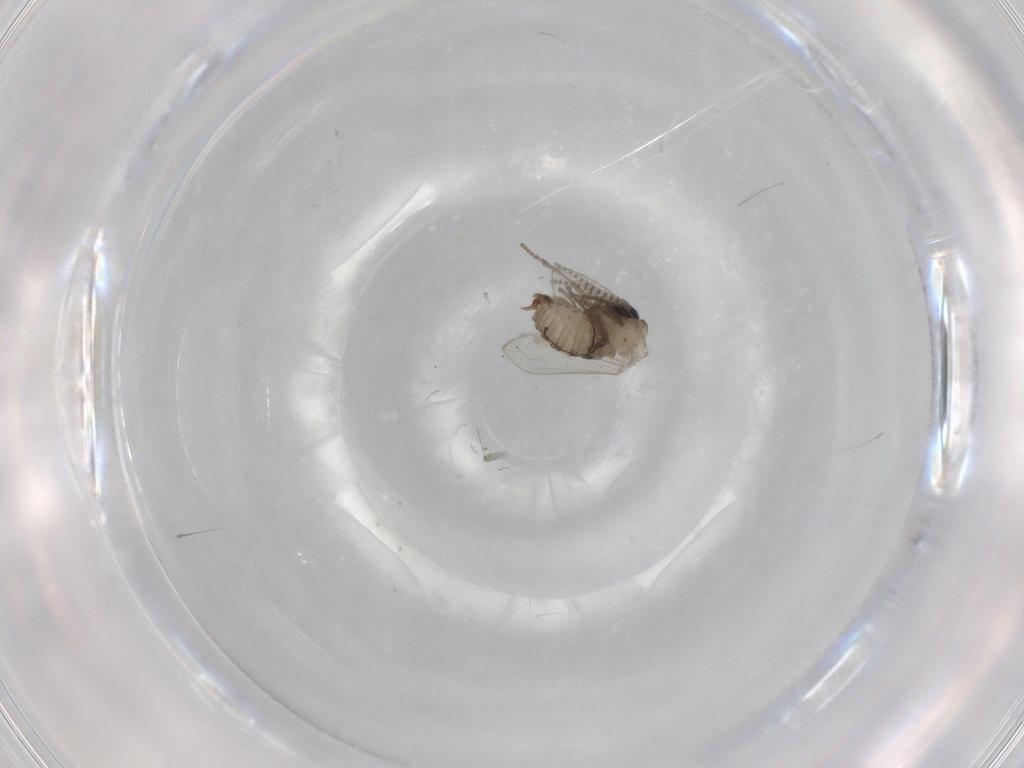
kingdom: Animalia
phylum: Arthropoda
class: Insecta
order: Diptera
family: Psychodidae
